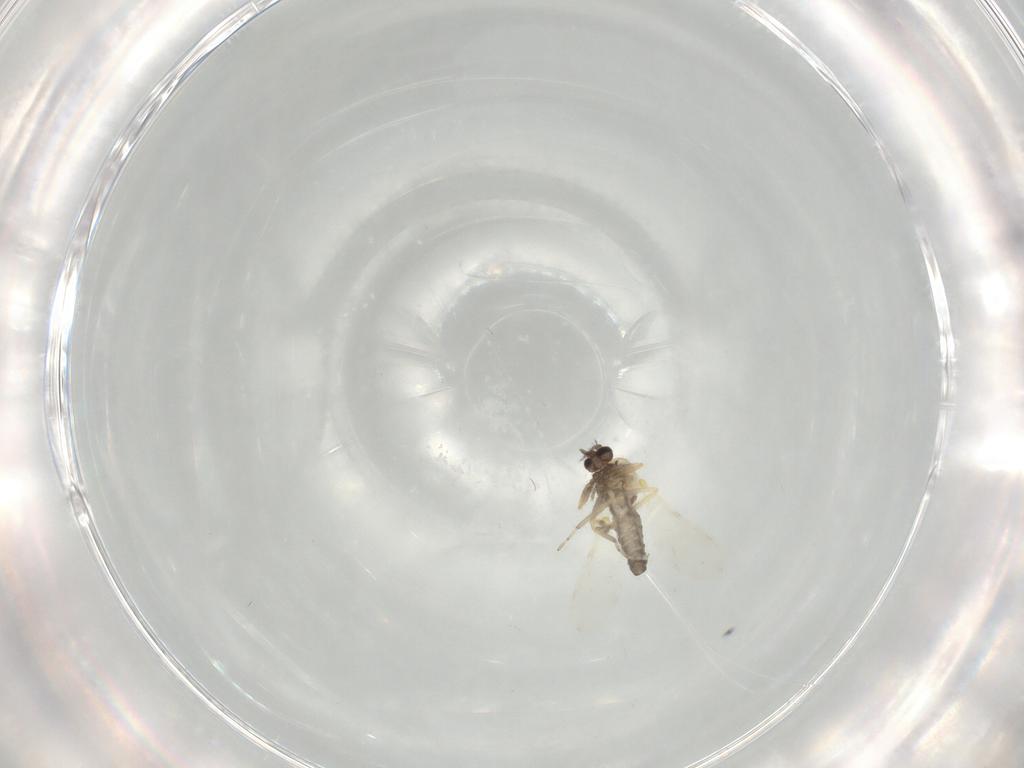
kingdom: Animalia
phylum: Arthropoda
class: Insecta
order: Diptera
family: Ceratopogonidae
